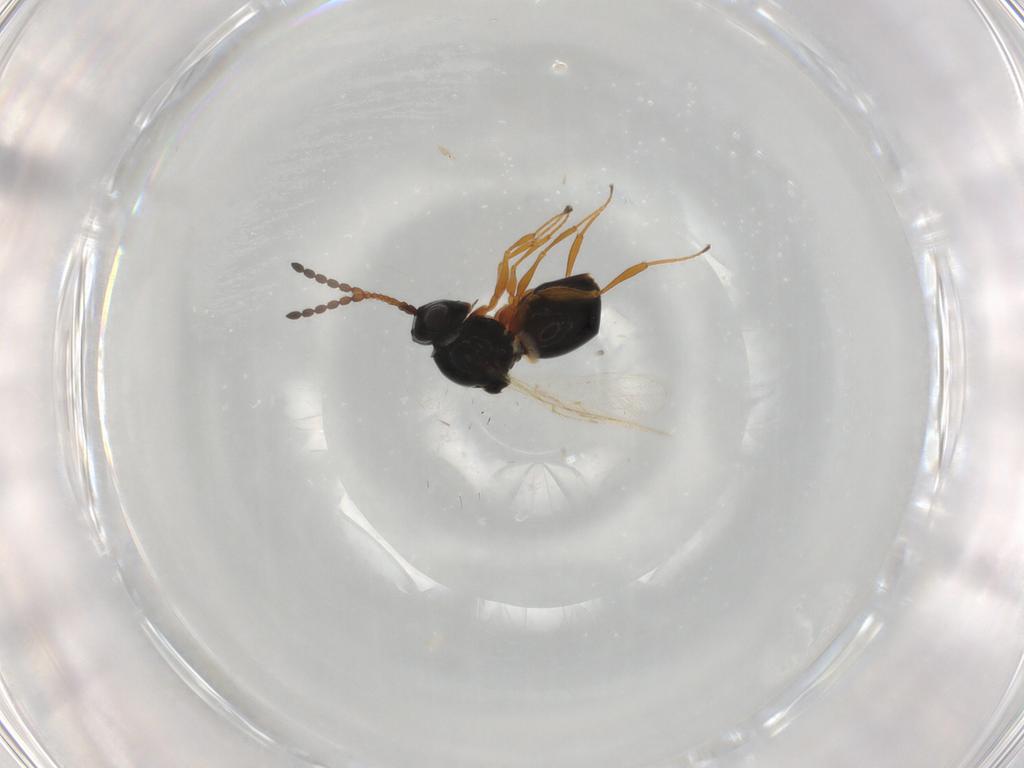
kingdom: Animalia
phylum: Arthropoda
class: Insecta
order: Hymenoptera
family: Figitidae
